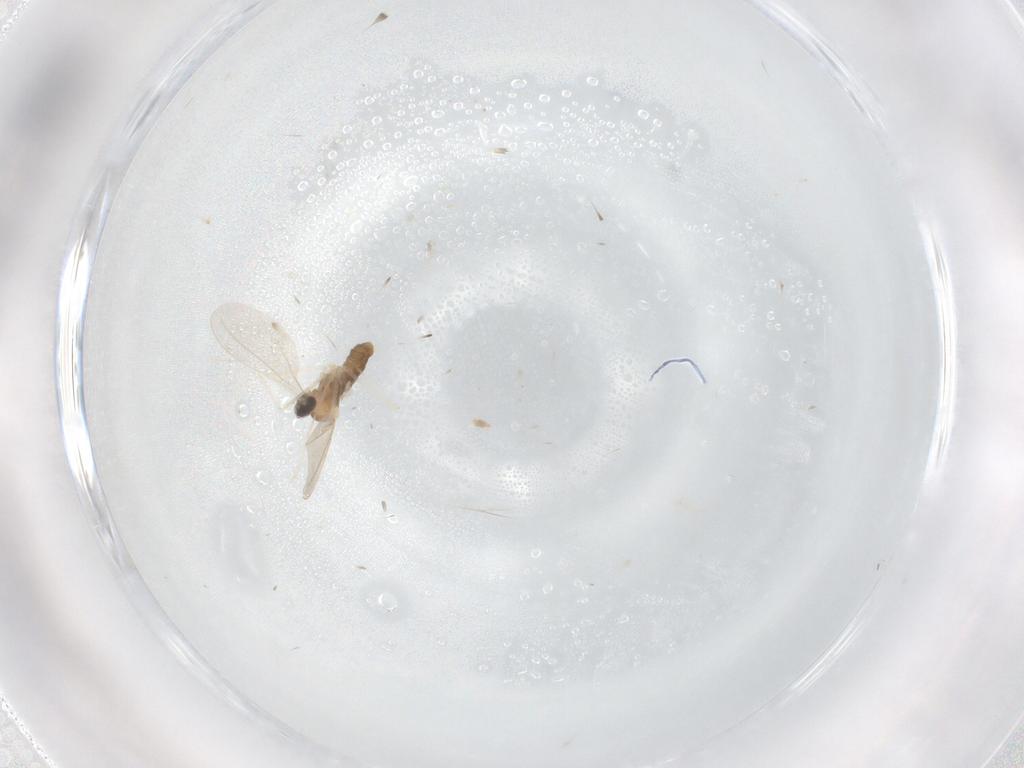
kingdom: Animalia
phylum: Arthropoda
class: Insecta
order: Diptera
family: Cecidomyiidae
